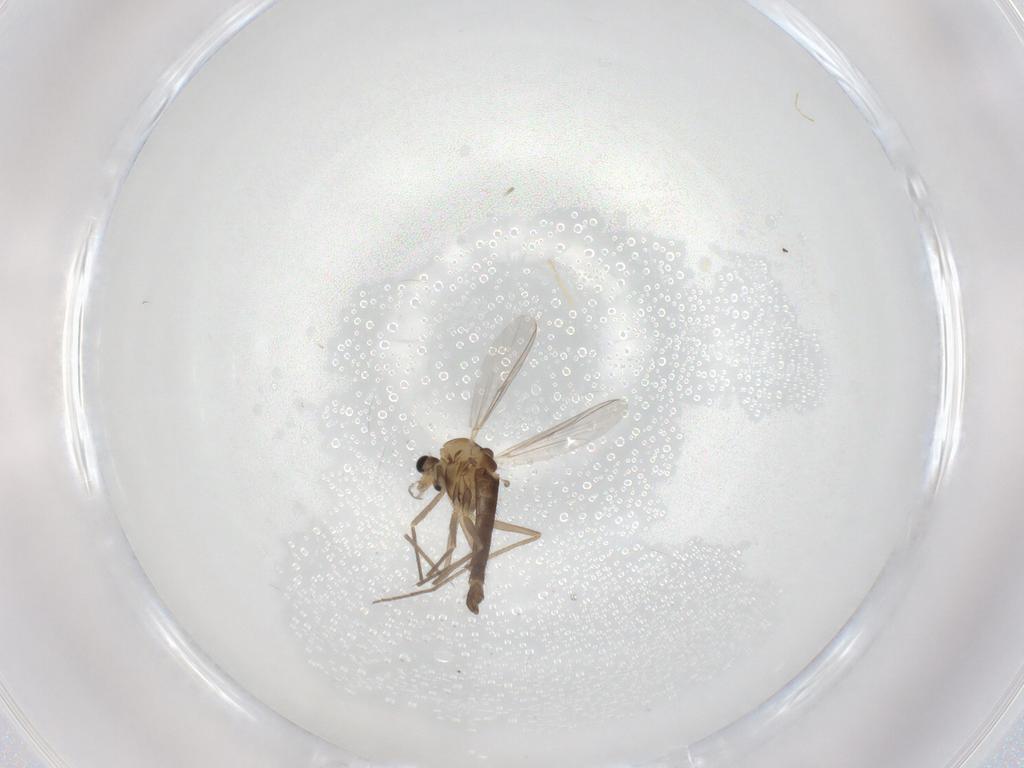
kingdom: Animalia
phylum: Arthropoda
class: Insecta
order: Diptera
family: Chironomidae
